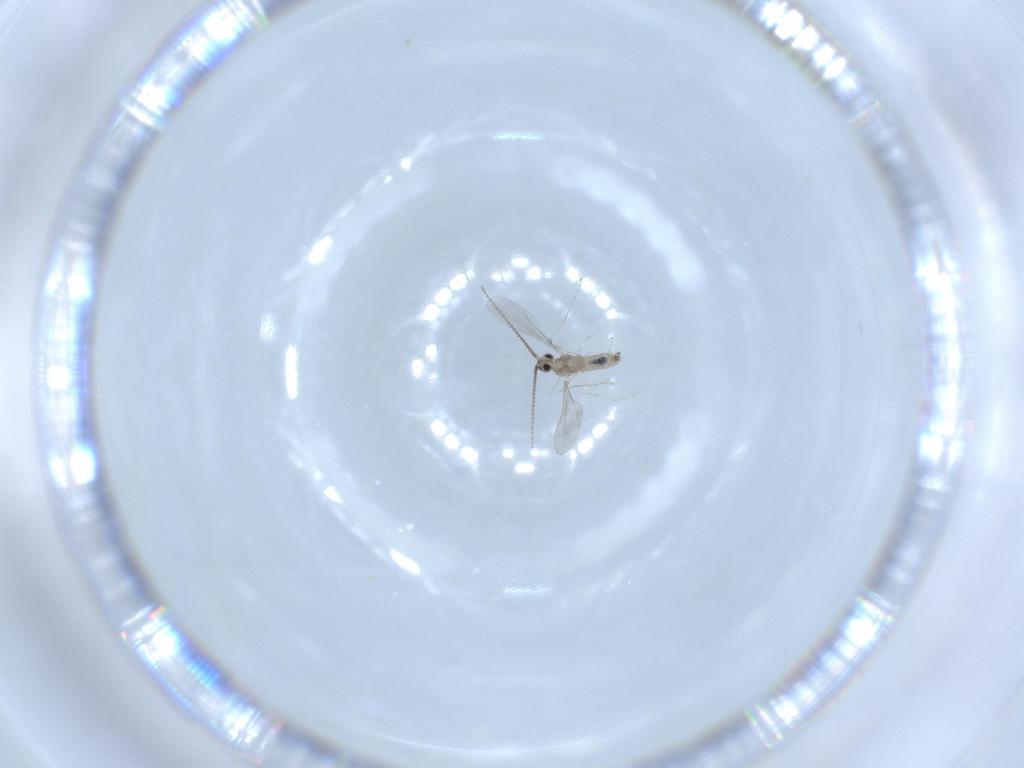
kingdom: Animalia
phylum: Arthropoda
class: Insecta
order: Diptera
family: Cecidomyiidae
